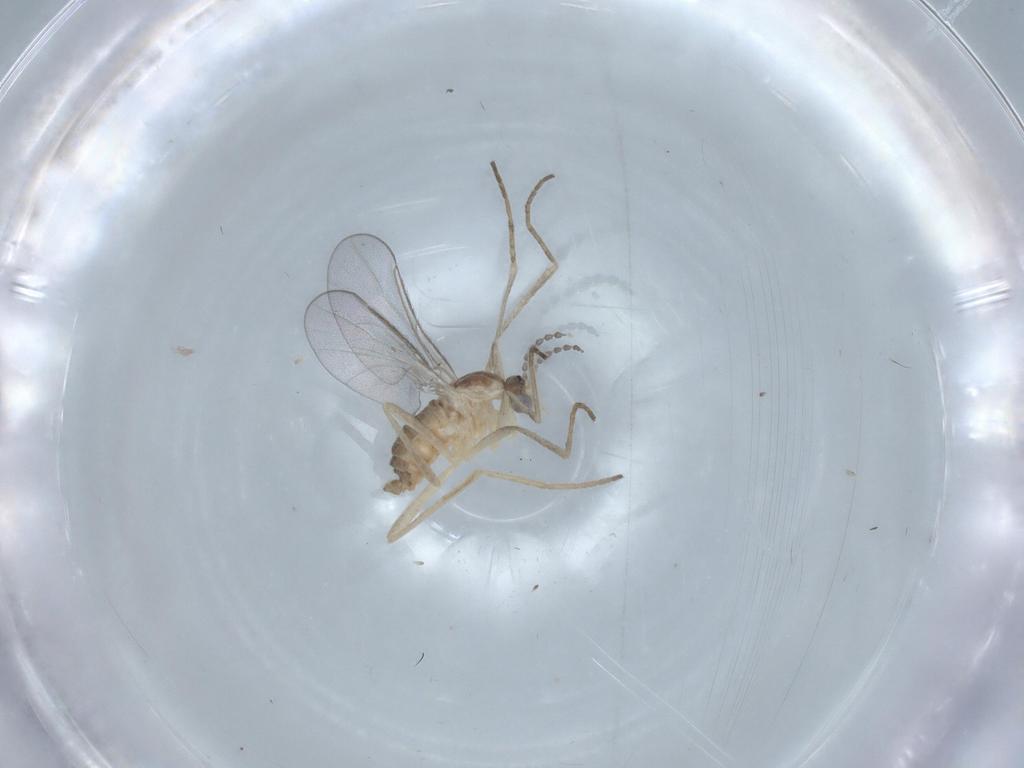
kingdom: Animalia
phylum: Arthropoda
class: Insecta
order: Diptera
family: Chironomidae
